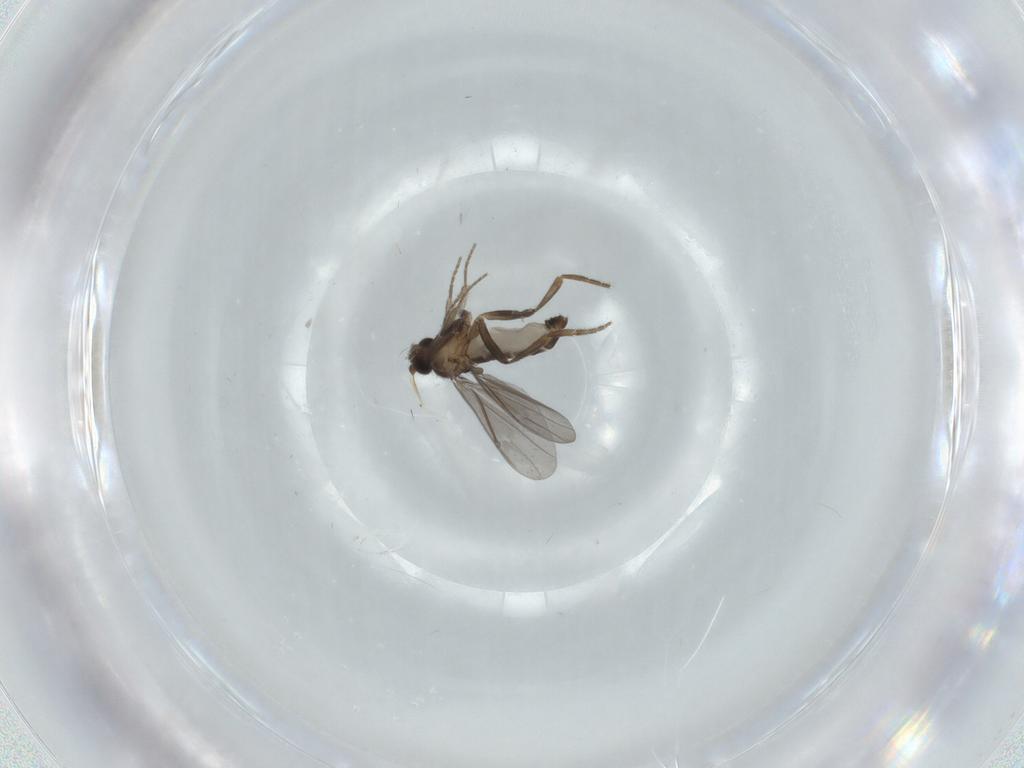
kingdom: Animalia
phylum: Arthropoda
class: Insecta
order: Diptera
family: Phoridae
